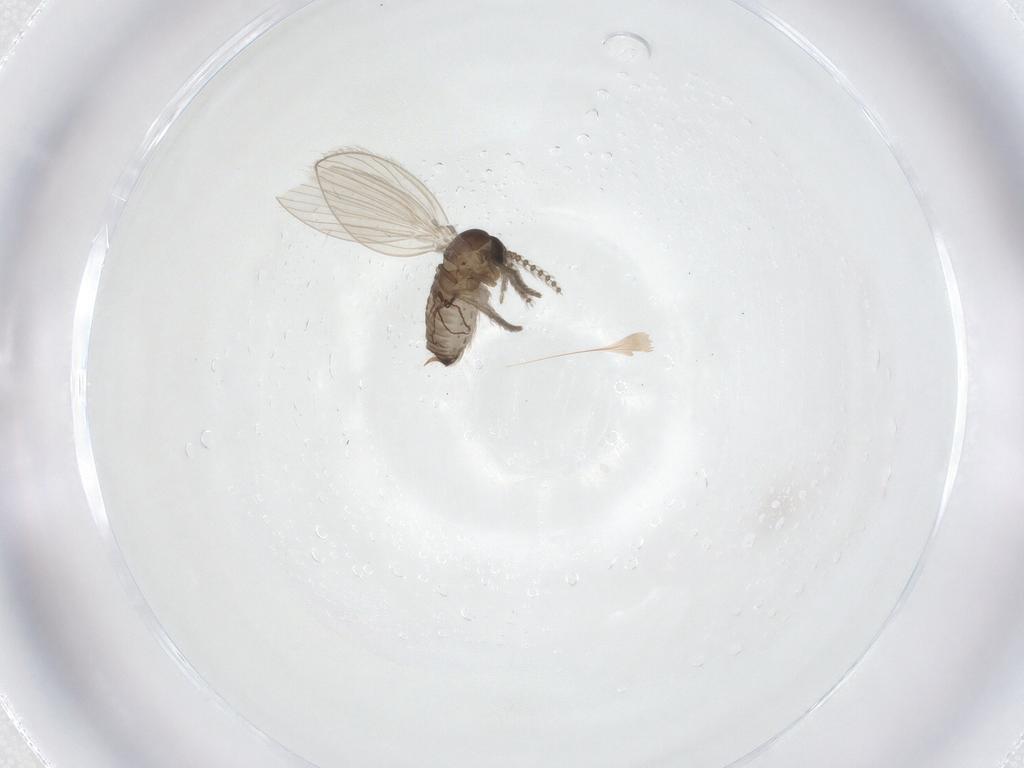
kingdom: Animalia
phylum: Arthropoda
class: Insecta
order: Diptera
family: Psychodidae
